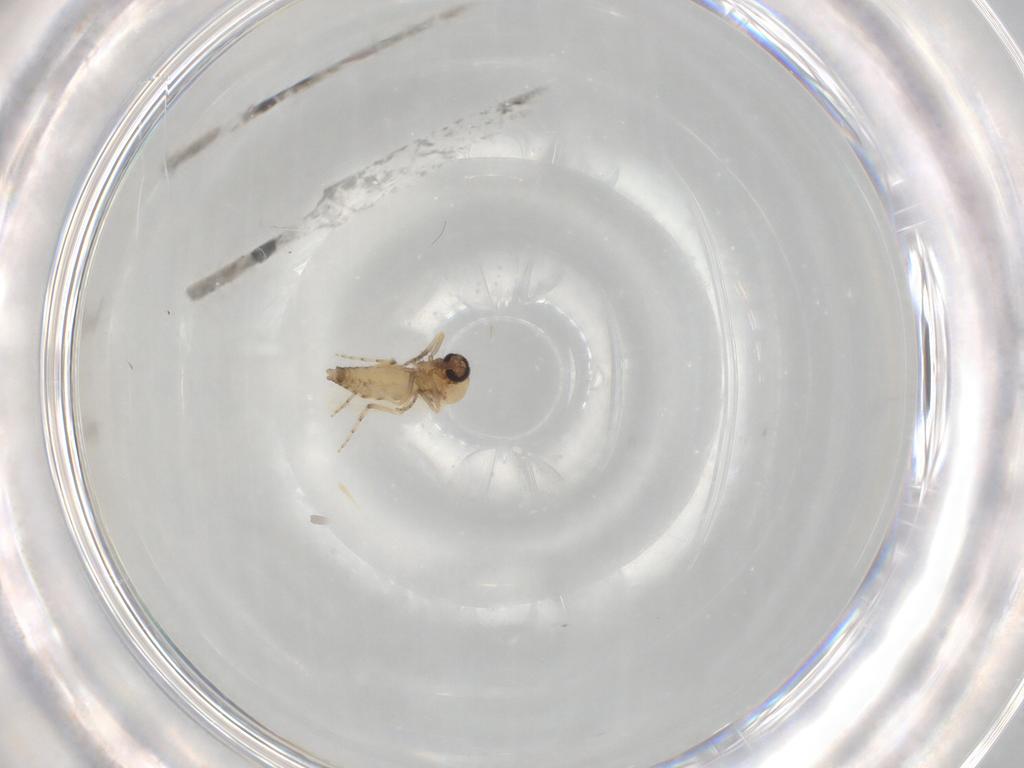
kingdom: Animalia
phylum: Arthropoda
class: Insecta
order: Diptera
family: Ceratopogonidae
